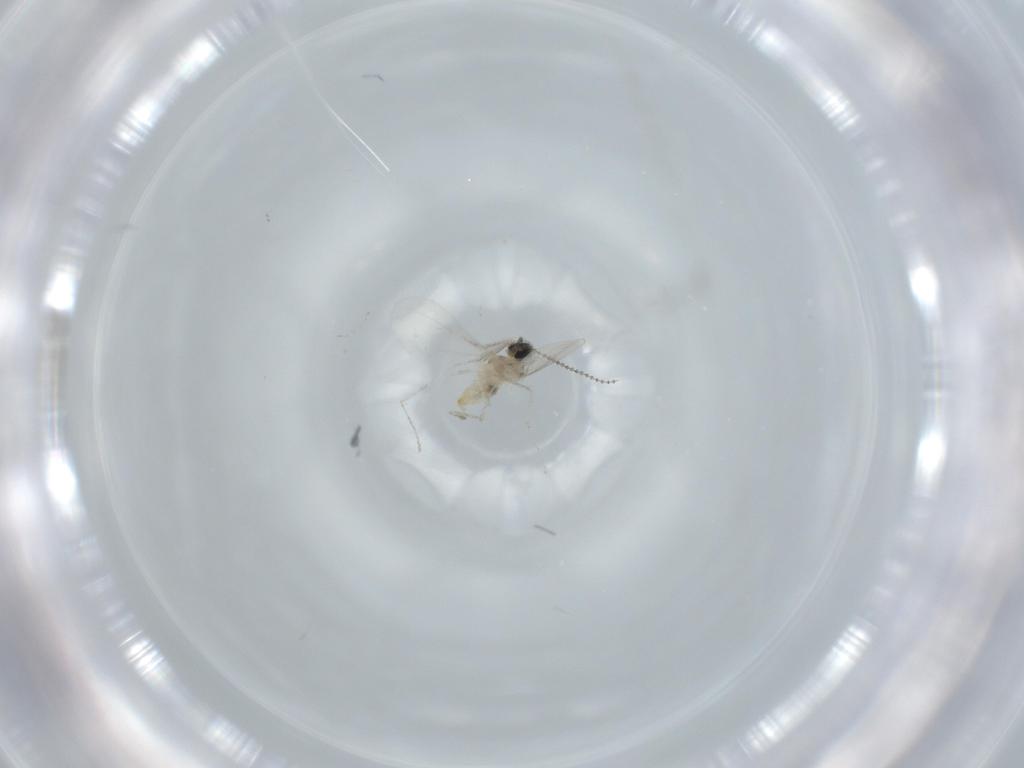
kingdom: Animalia
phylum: Arthropoda
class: Insecta
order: Diptera
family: Cecidomyiidae
